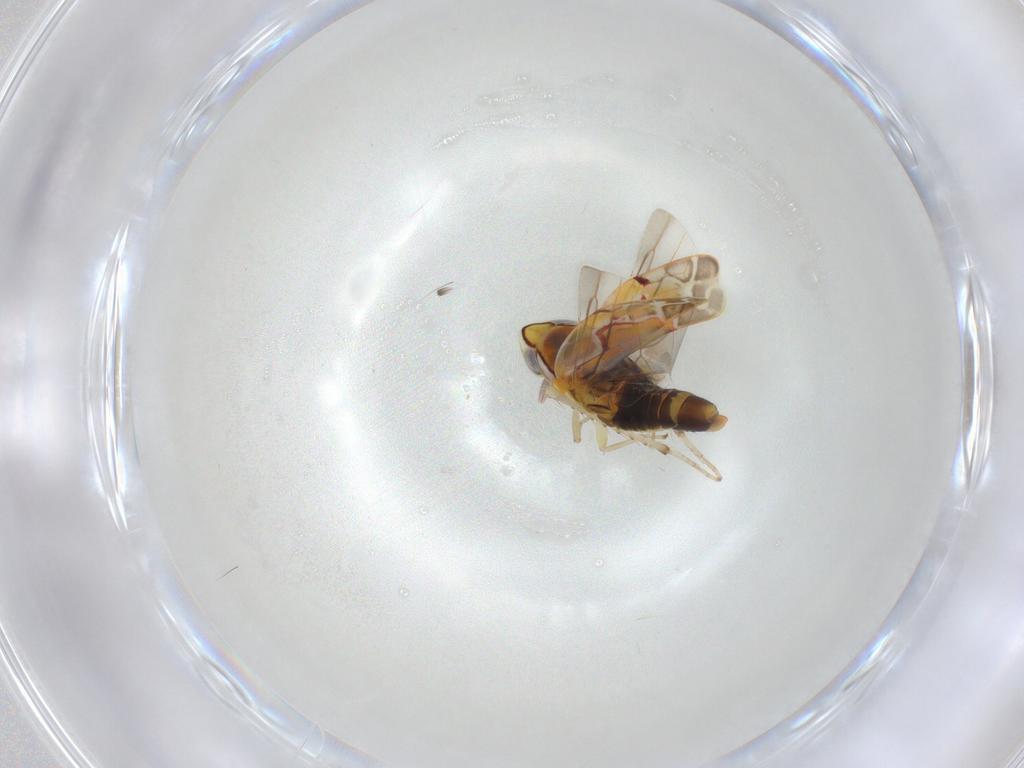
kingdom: Animalia
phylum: Arthropoda
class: Insecta
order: Hemiptera
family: Cicadellidae
